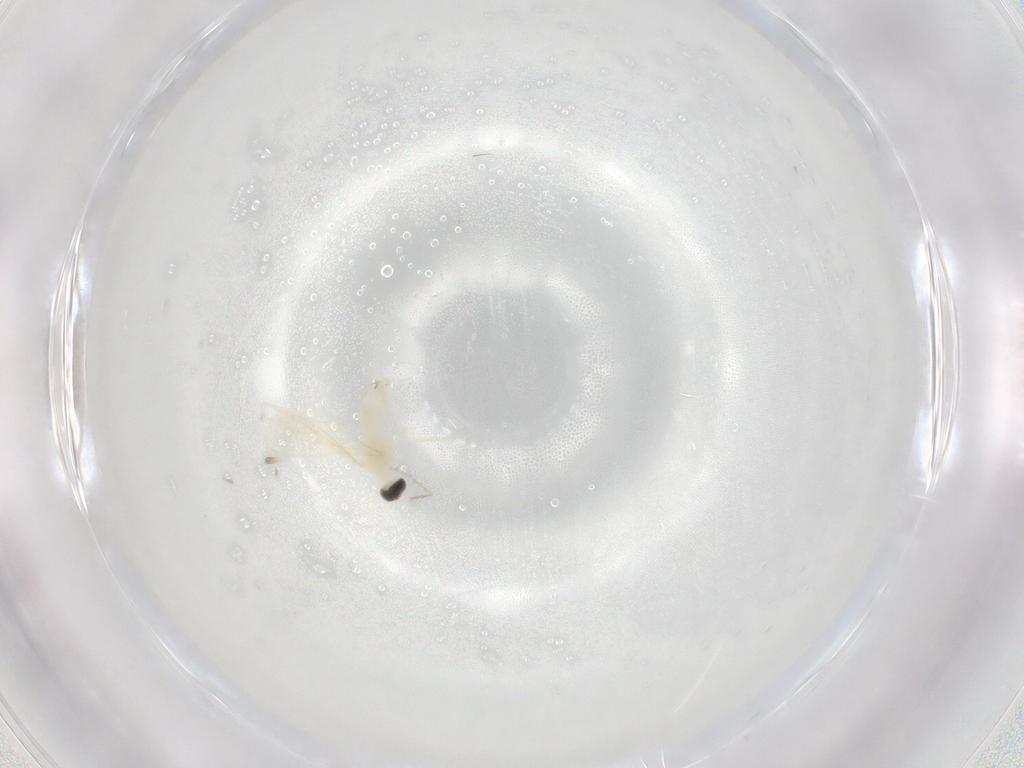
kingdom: Animalia
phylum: Arthropoda
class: Insecta
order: Diptera
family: Cecidomyiidae
